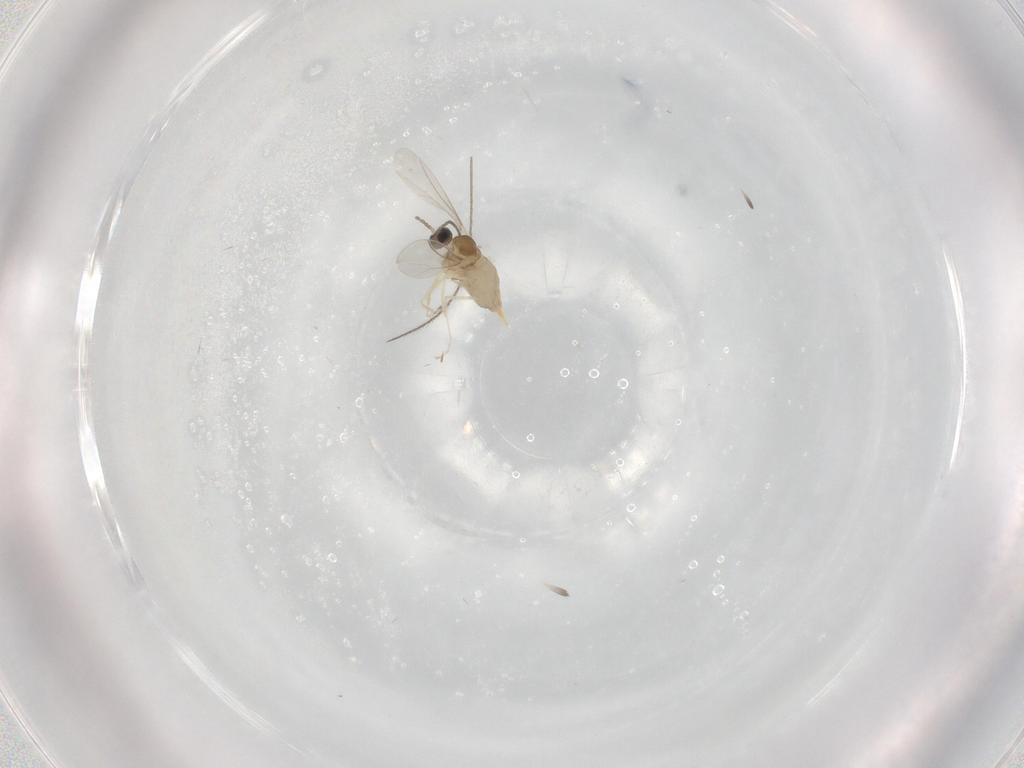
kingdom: Animalia
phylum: Arthropoda
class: Insecta
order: Diptera
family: Cecidomyiidae
